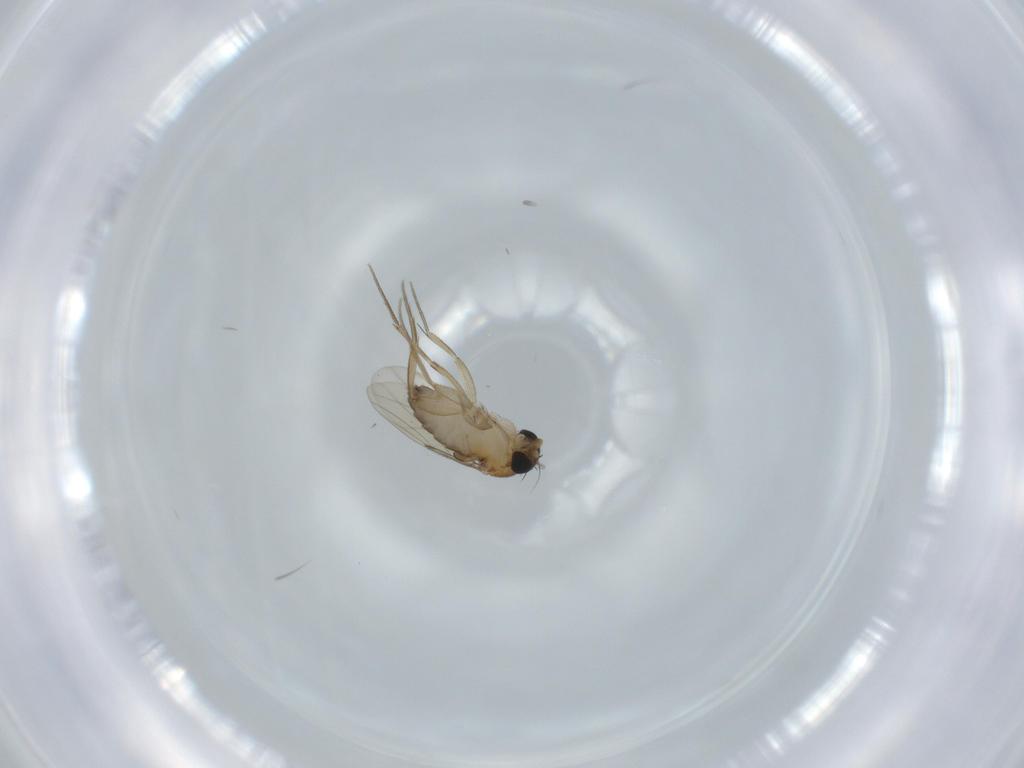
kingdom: Animalia
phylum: Arthropoda
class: Insecta
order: Diptera
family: Phoridae
